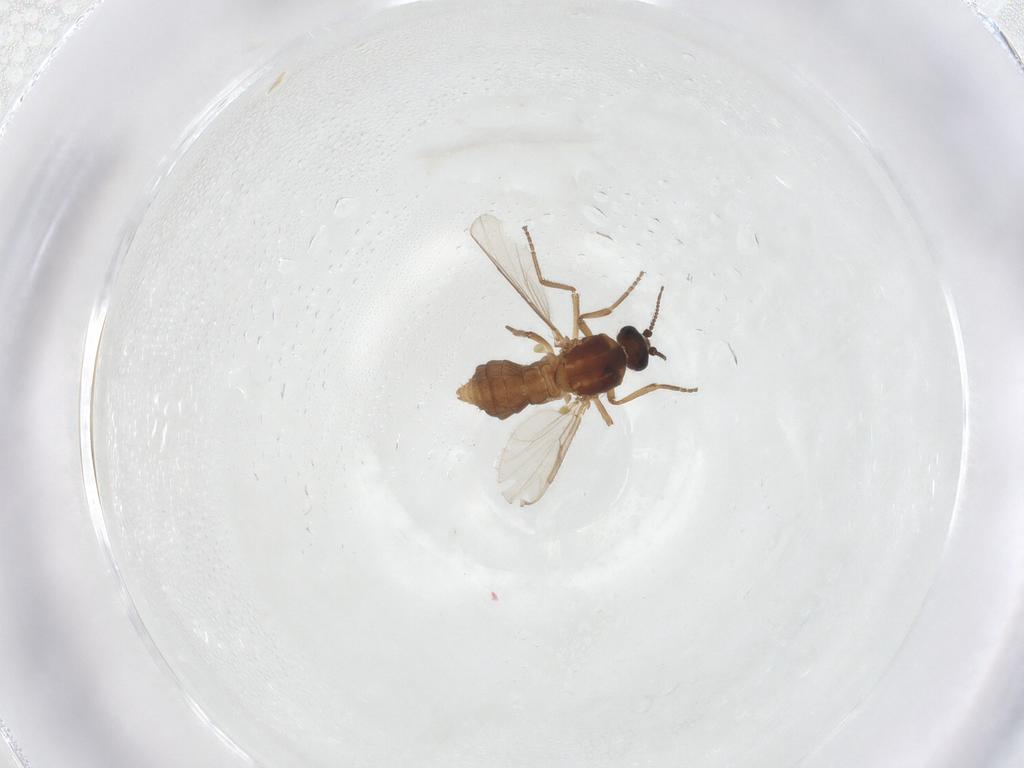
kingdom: Animalia
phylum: Arthropoda
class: Insecta
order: Diptera
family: Ceratopogonidae
